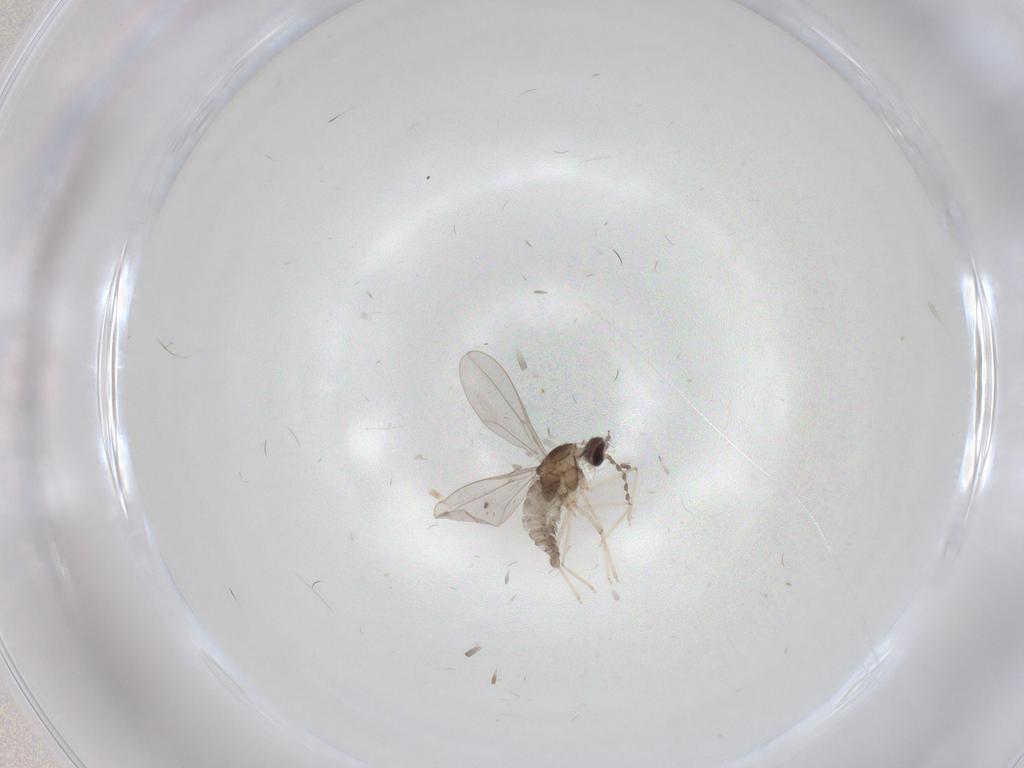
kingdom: Animalia
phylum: Arthropoda
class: Insecta
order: Diptera
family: Cecidomyiidae
